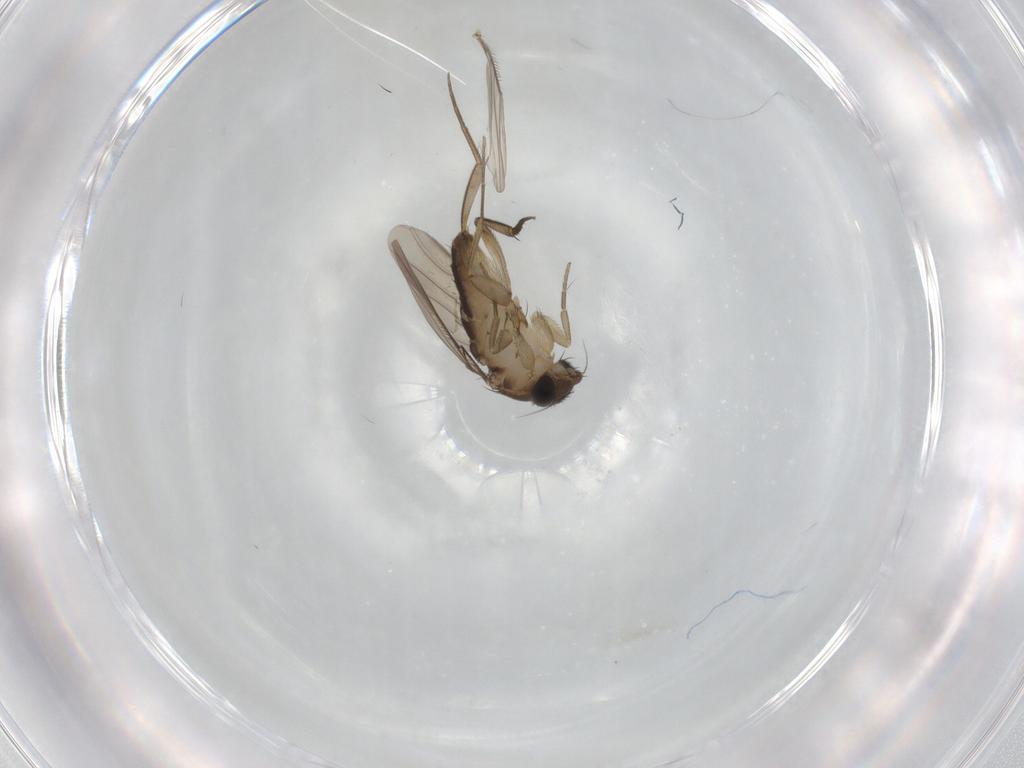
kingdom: Animalia
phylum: Arthropoda
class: Insecta
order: Diptera
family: Phoridae
